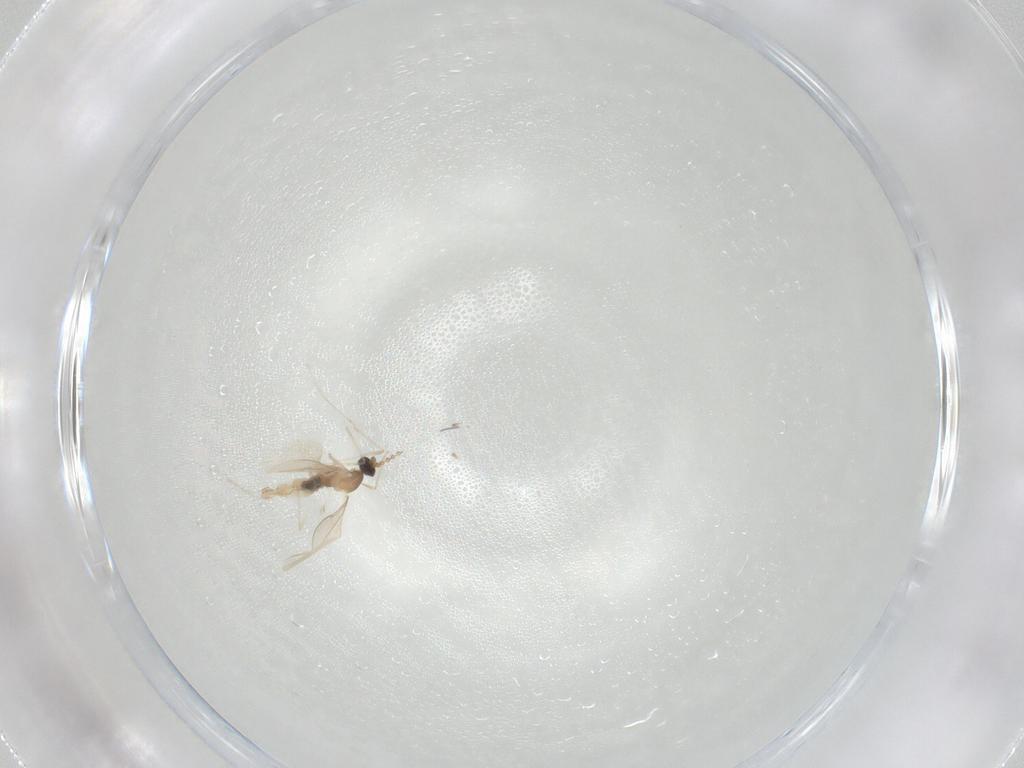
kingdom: Animalia
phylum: Arthropoda
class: Insecta
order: Diptera
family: Cecidomyiidae
